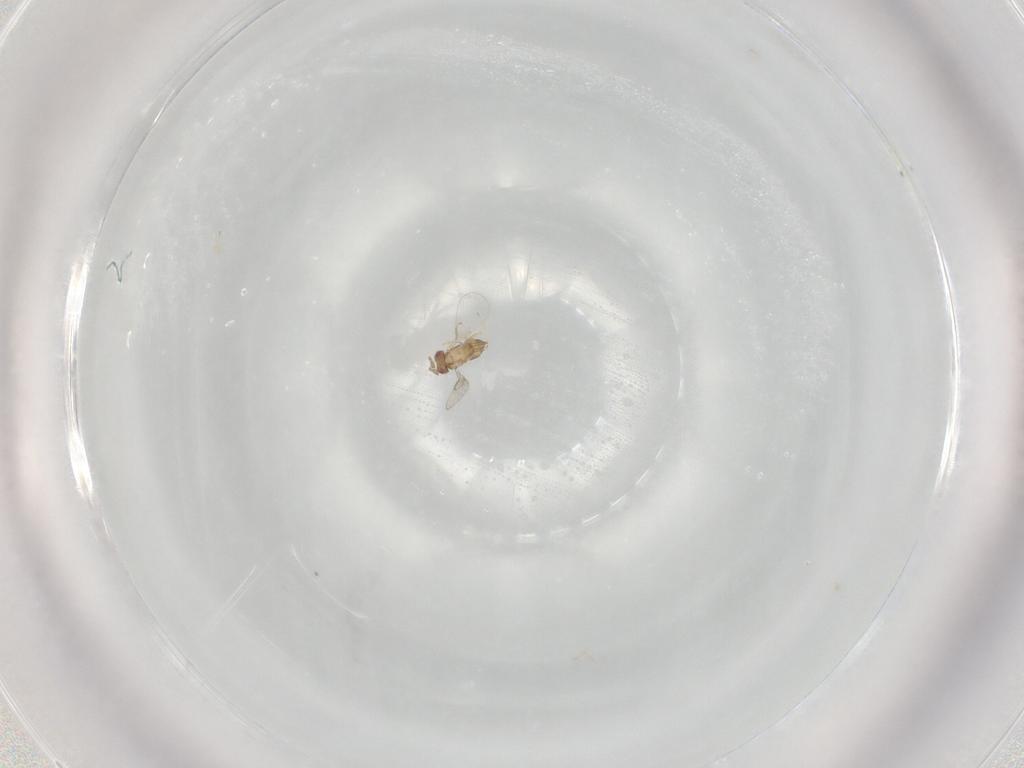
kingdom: Animalia
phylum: Arthropoda
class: Insecta
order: Hymenoptera
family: Trichogrammatidae
